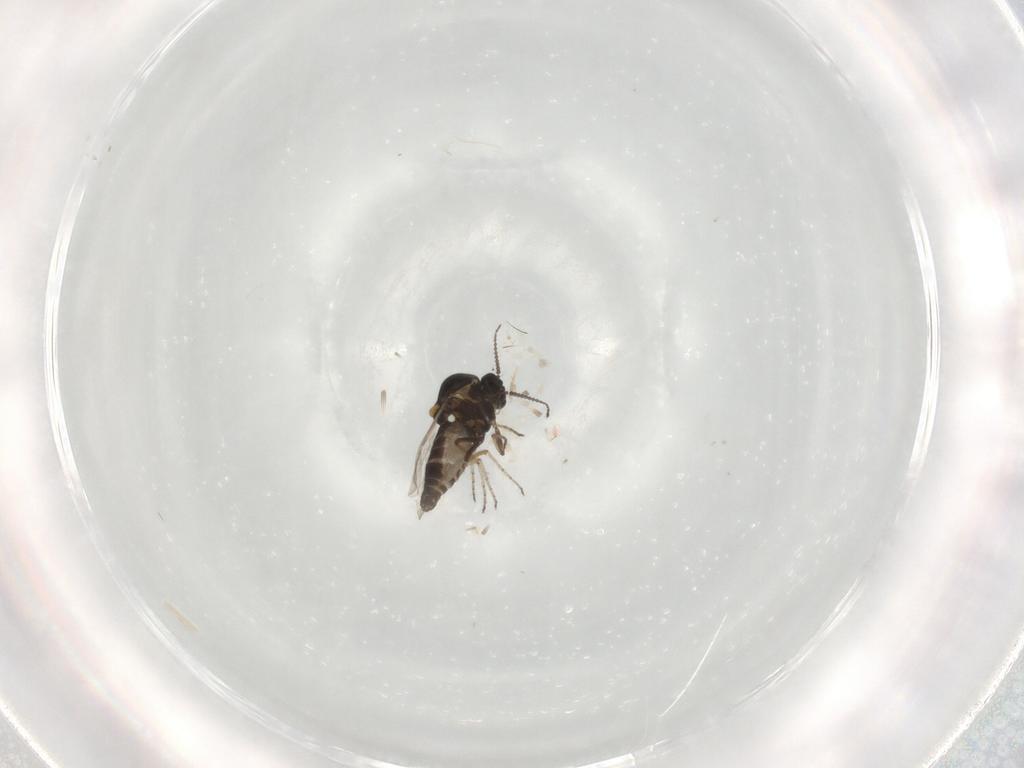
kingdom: Animalia
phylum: Arthropoda
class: Insecta
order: Diptera
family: Ceratopogonidae
